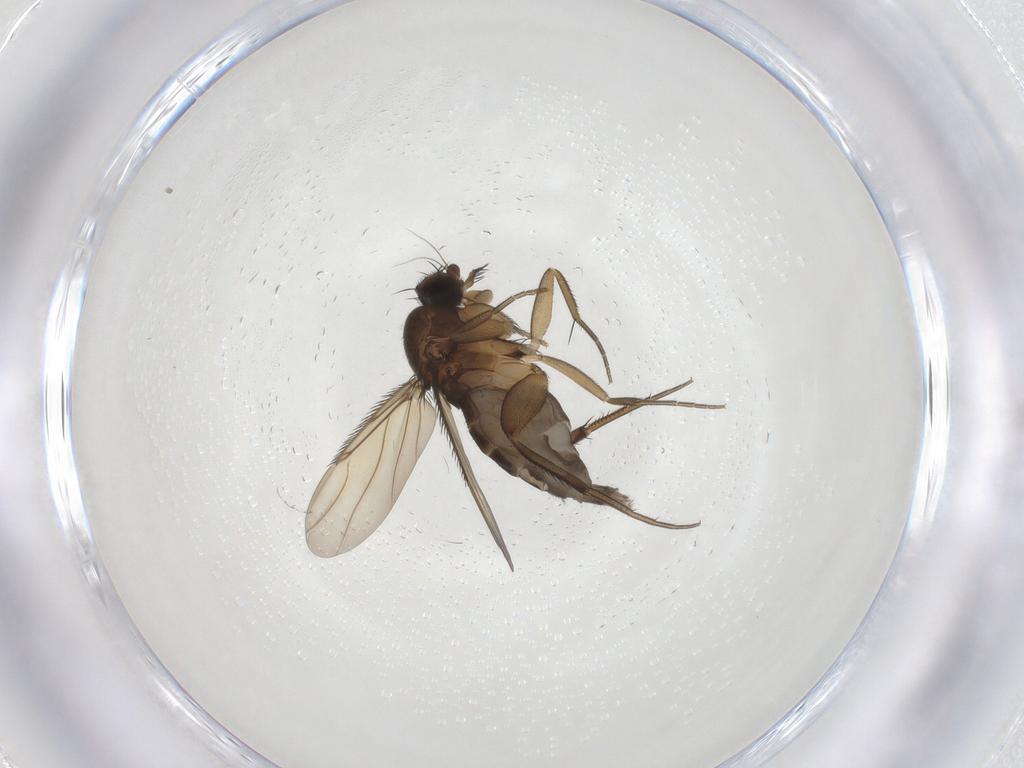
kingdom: Animalia
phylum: Arthropoda
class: Insecta
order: Diptera
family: Phoridae
